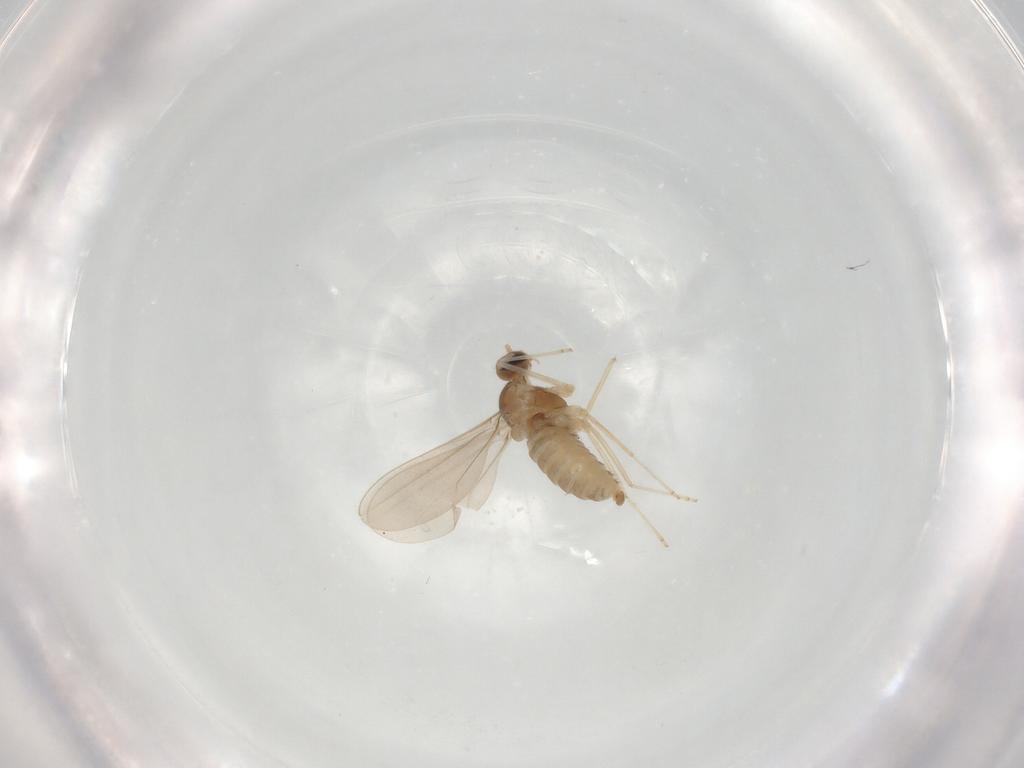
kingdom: Animalia
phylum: Arthropoda
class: Insecta
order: Diptera
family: Cecidomyiidae
